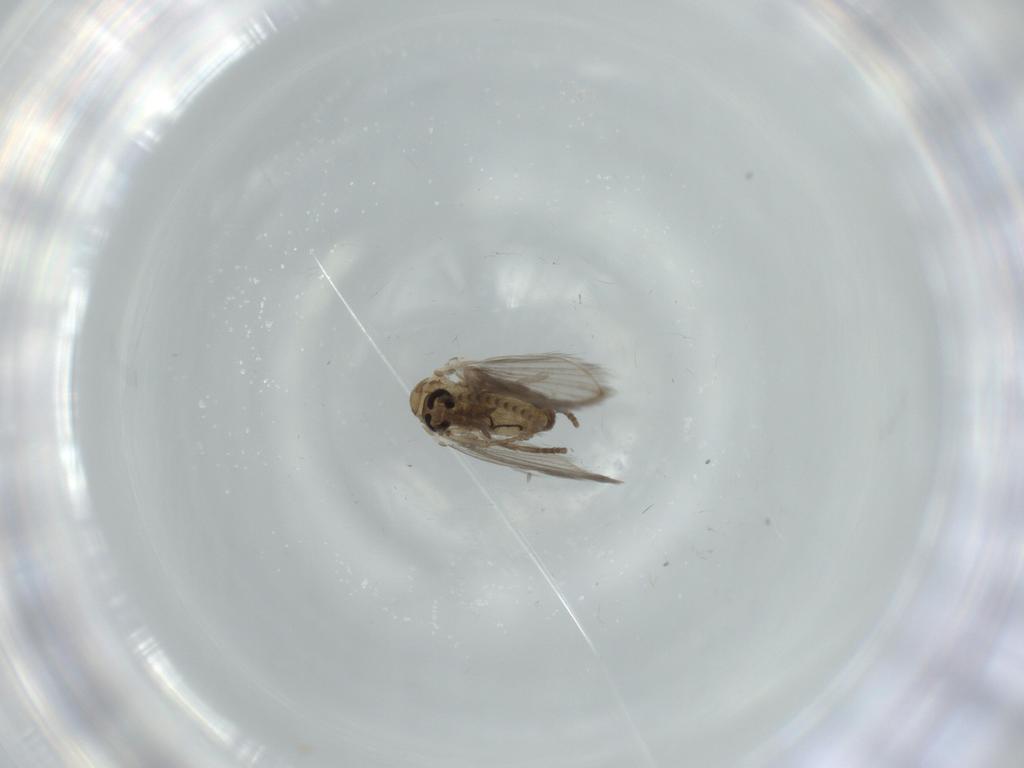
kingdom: Animalia
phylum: Arthropoda
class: Insecta
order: Diptera
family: Psychodidae
